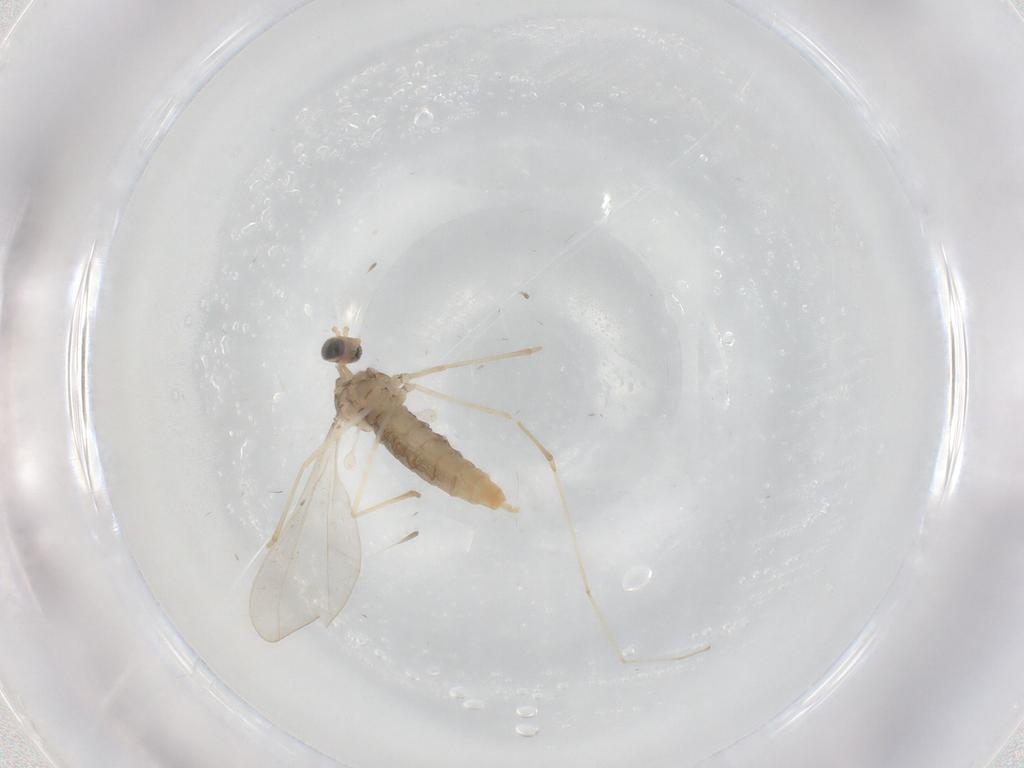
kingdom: Animalia
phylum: Arthropoda
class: Insecta
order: Diptera
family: Cecidomyiidae
